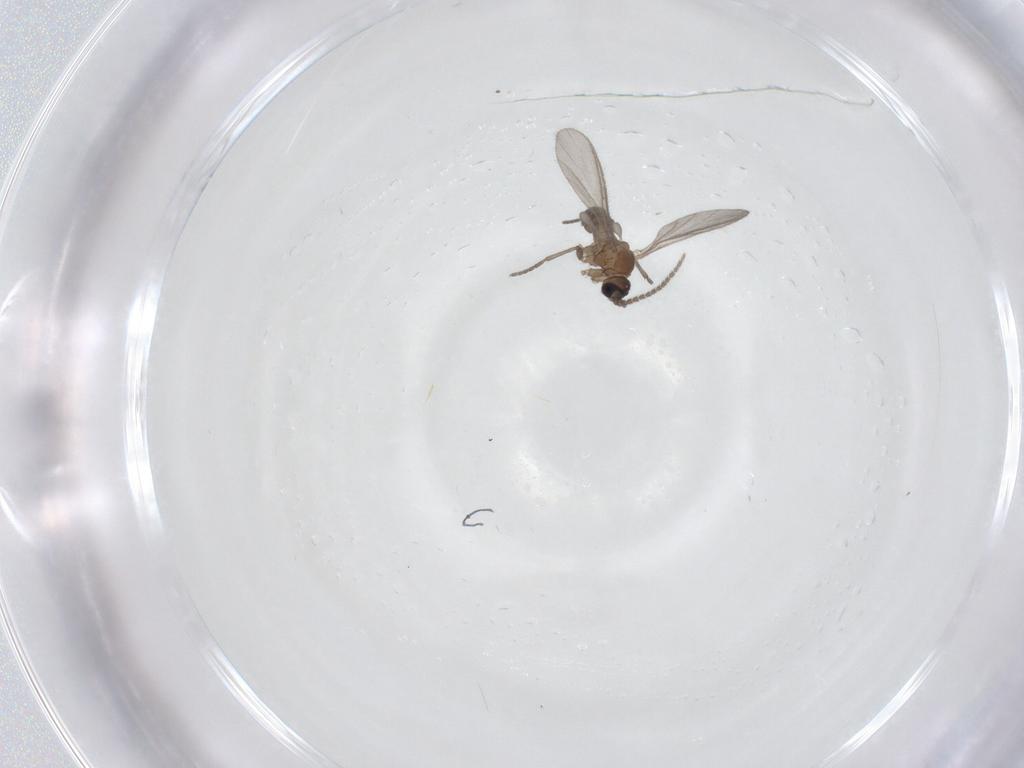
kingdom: Animalia
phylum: Arthropoda
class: Insecta
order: Diptera
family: Sciaridae
